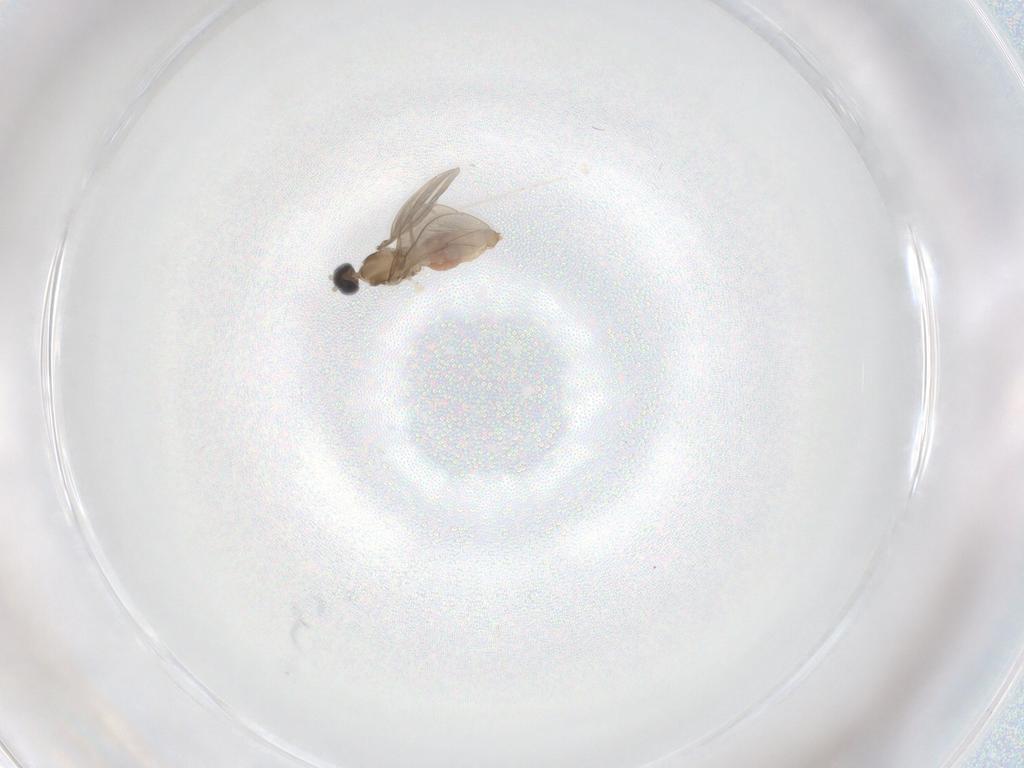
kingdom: Animalia
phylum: Arthropoda
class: Insecta
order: Diptera
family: Cecidomyiidae
